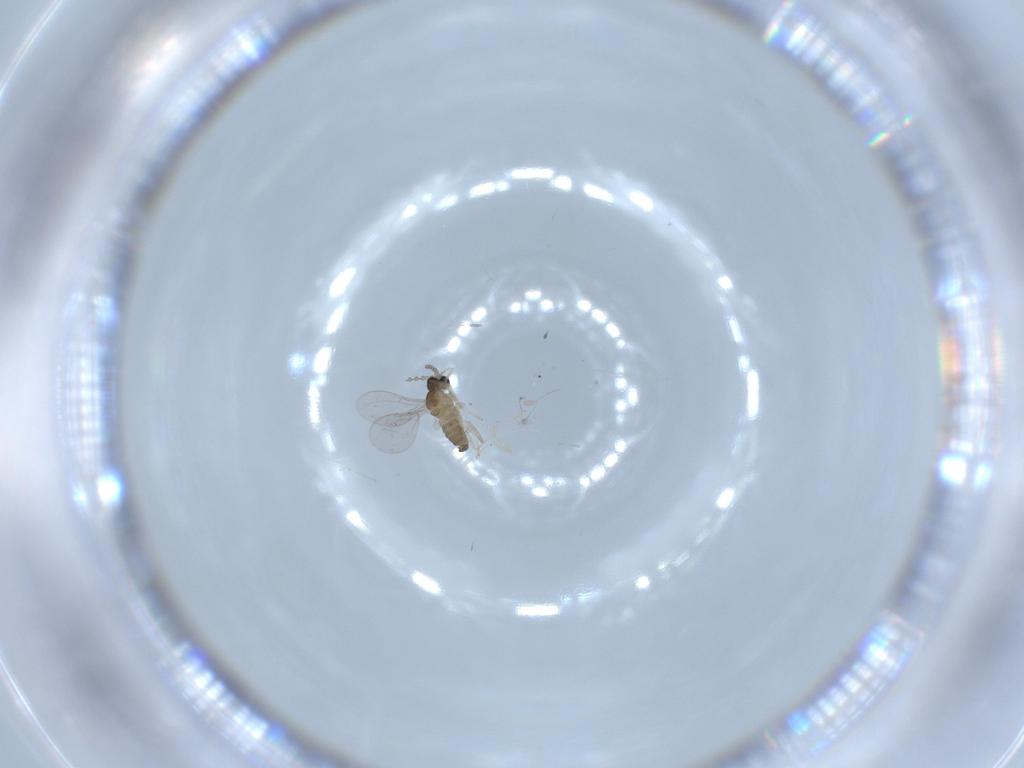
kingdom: Animalia
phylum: Arthropoda
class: Insecta
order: Diptera
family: Cecidomyiidae
